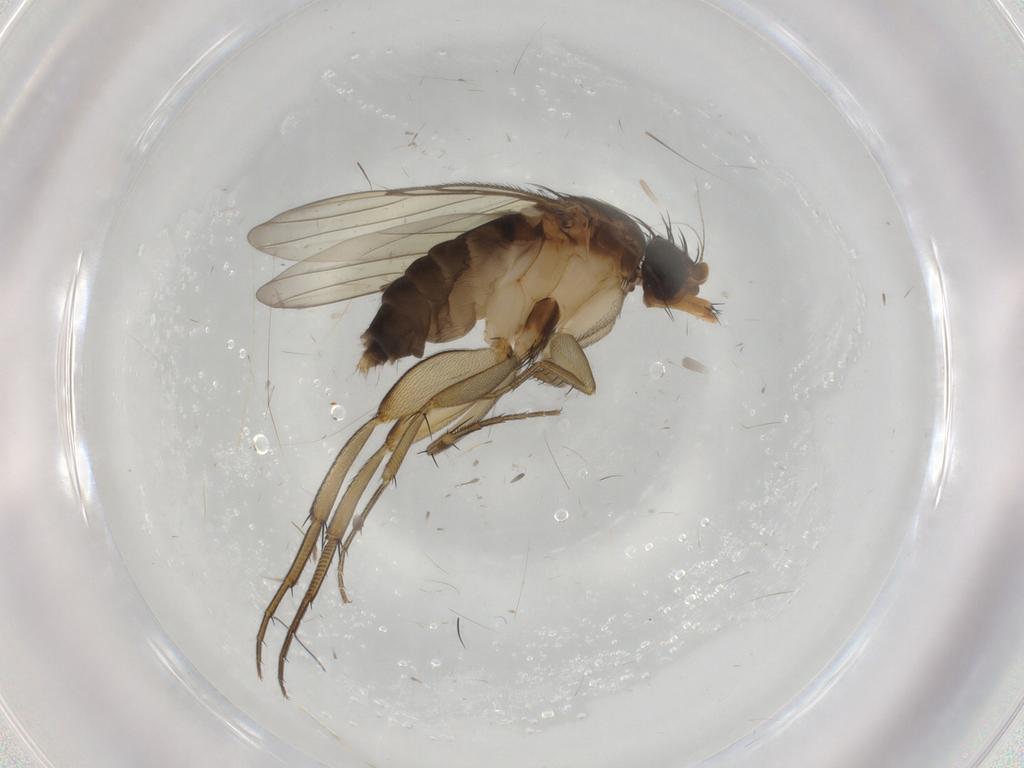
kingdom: Animalia
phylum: Arthropoda
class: Insecta
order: Diptera
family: Phoridae
